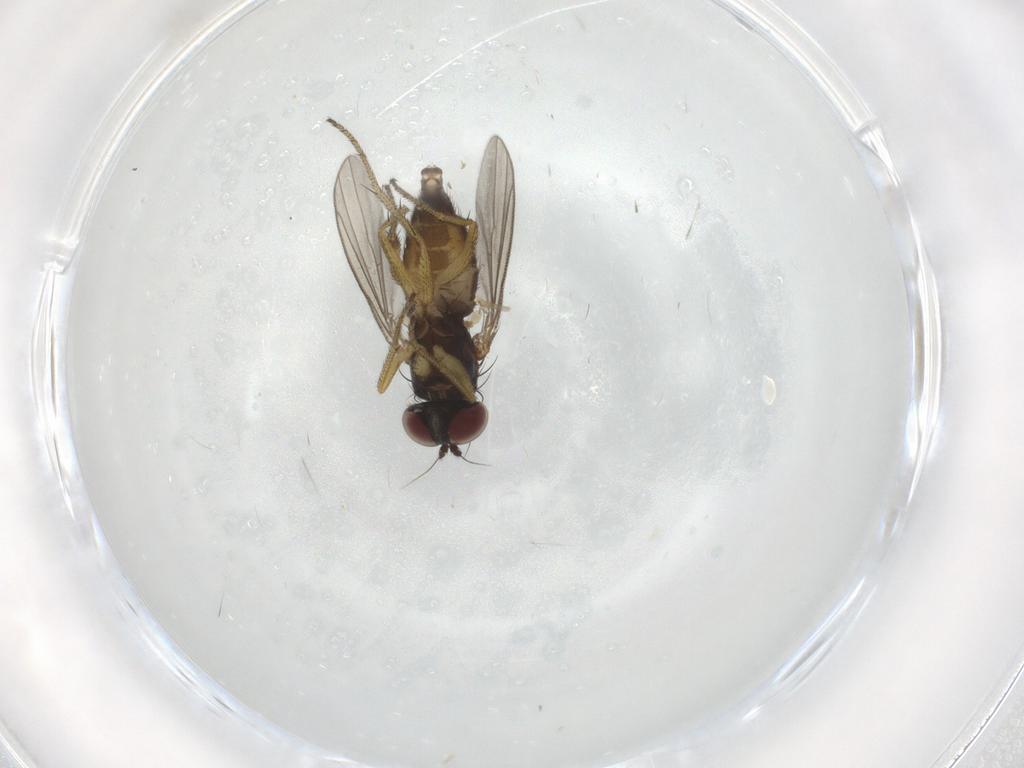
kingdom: Animalia
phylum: Arthropoda
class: Insecta
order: Diptera
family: Dolichopodidae
